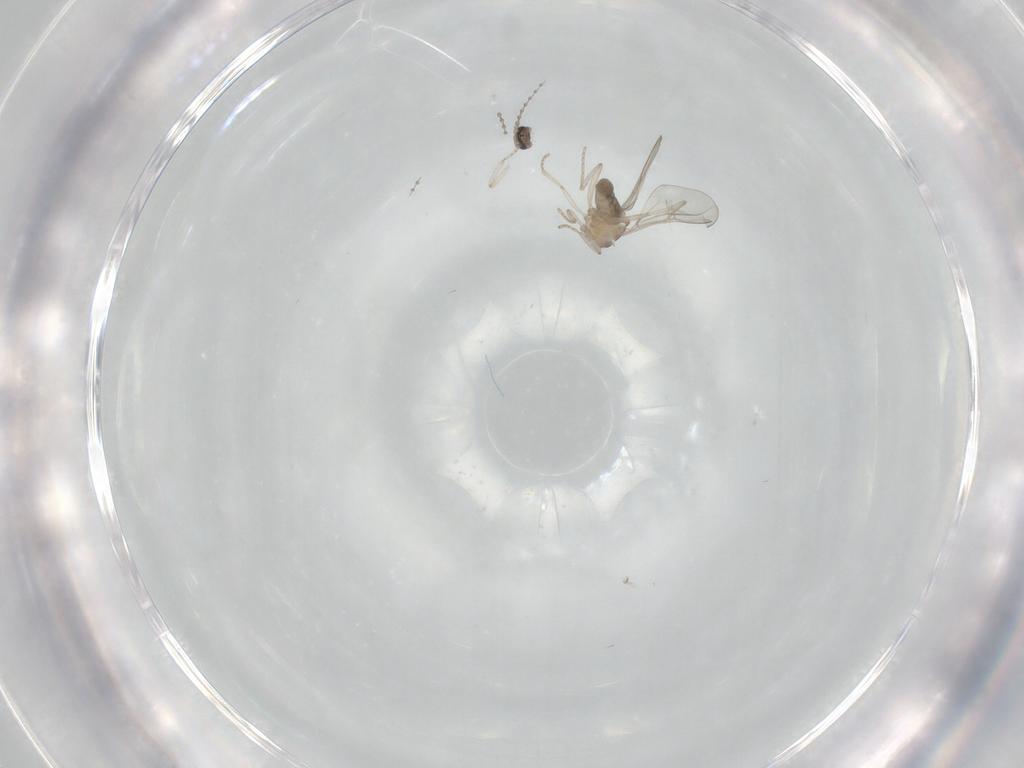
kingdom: Animalia
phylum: Arthropoda
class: Insecta
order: Diptera
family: Cecidomyiidae
